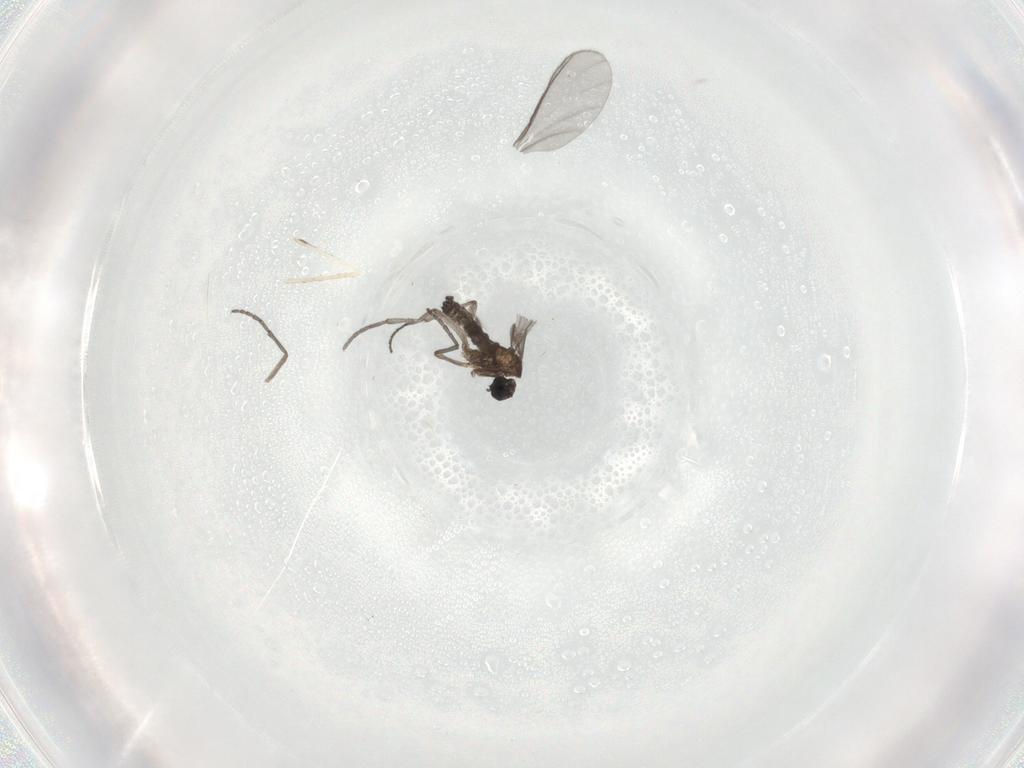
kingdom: Animalia
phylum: Arthropoda
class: Insecta
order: Diptera
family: Sciaridae
